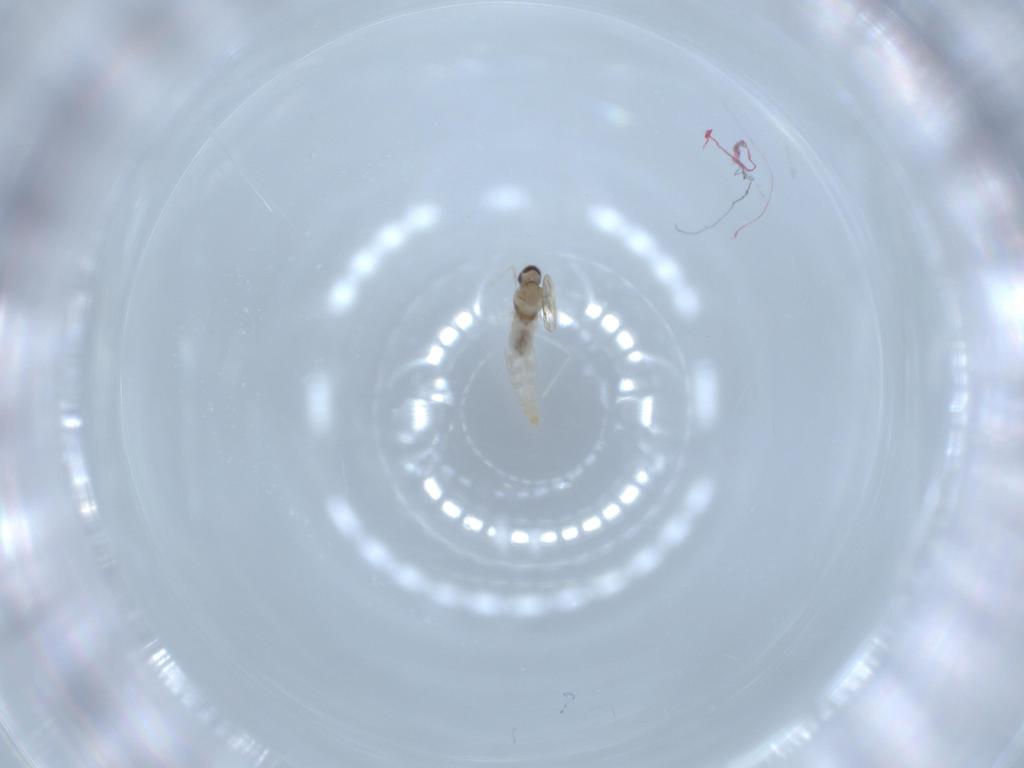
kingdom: Animalia
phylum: Arthropoda
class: Insecta
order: Diptera
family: Cecidomyiidae
